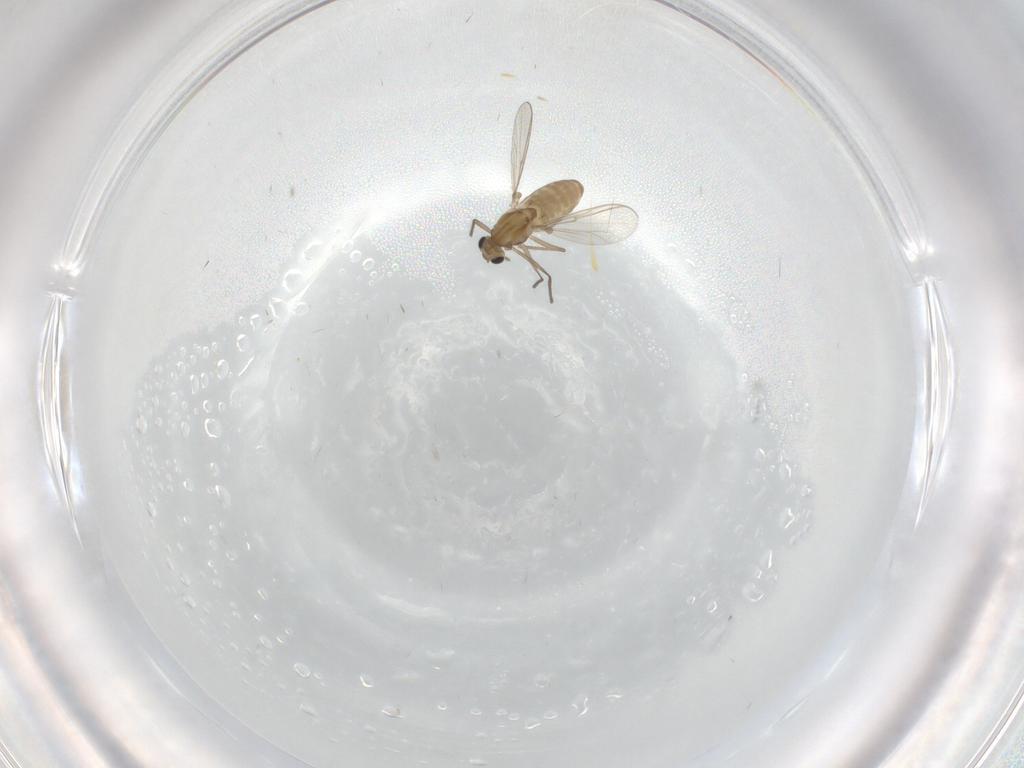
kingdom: Animalia
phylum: Arthropoda
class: Insecta
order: Diptera
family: Chironomidae
